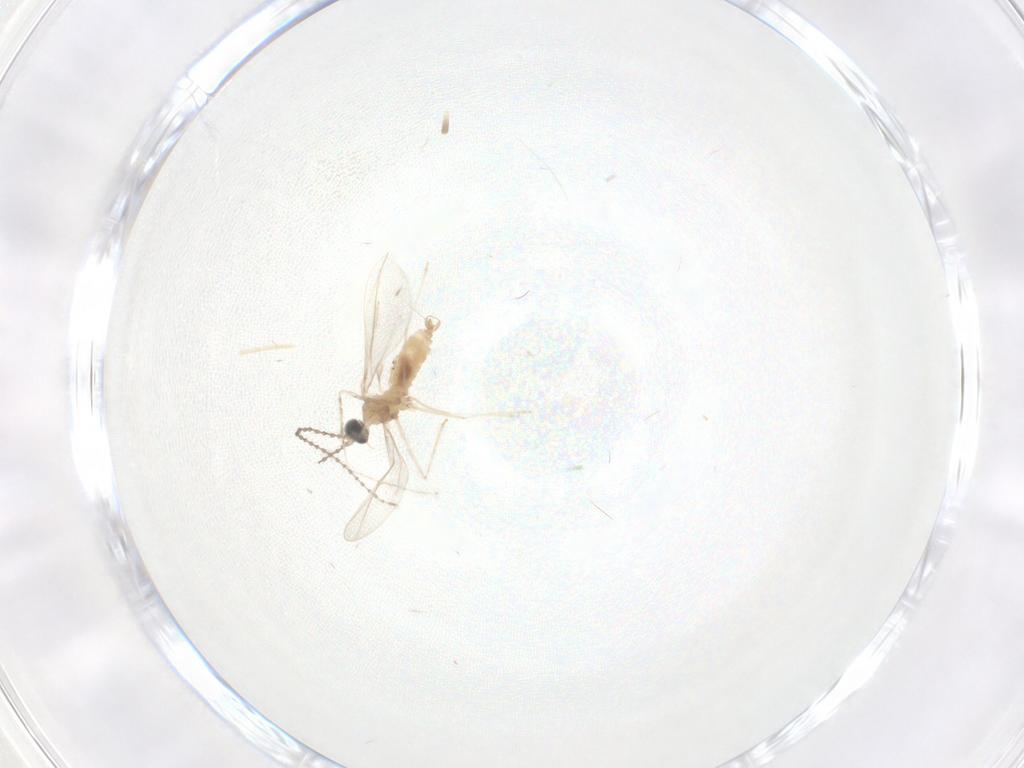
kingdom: Animalia
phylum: Arthropoda
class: Insecta
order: Diptera
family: Cecidomyiidae
